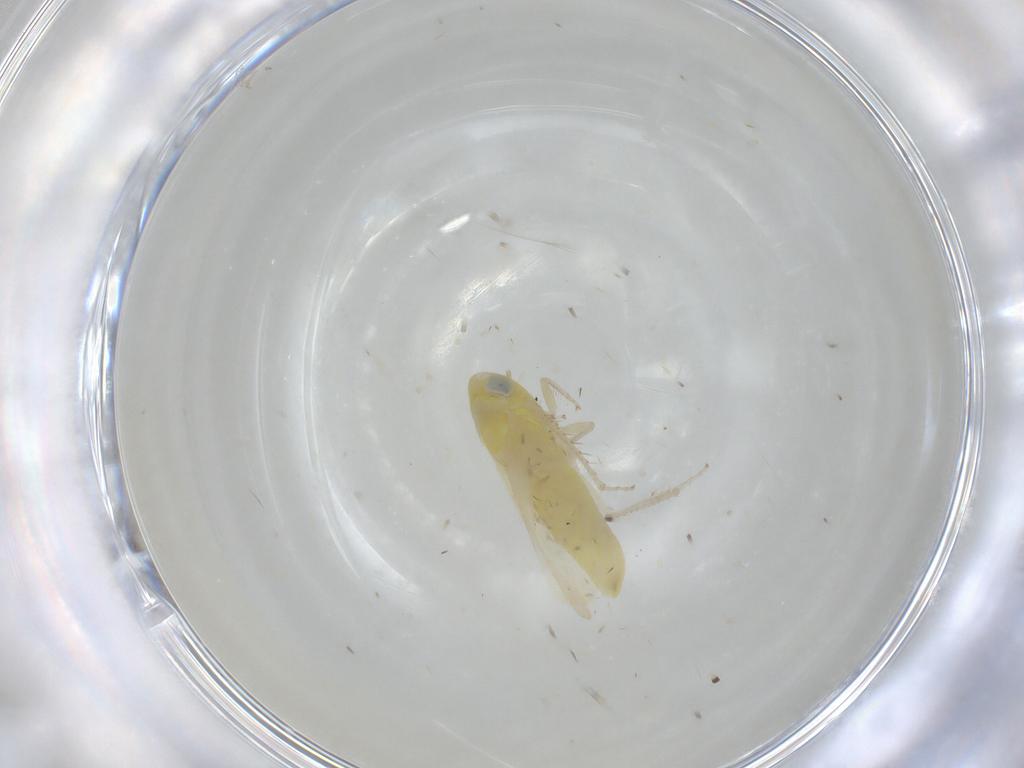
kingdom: Animalia
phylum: Arthropoda
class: Insecta
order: Hemiptera
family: Cicadellidae
